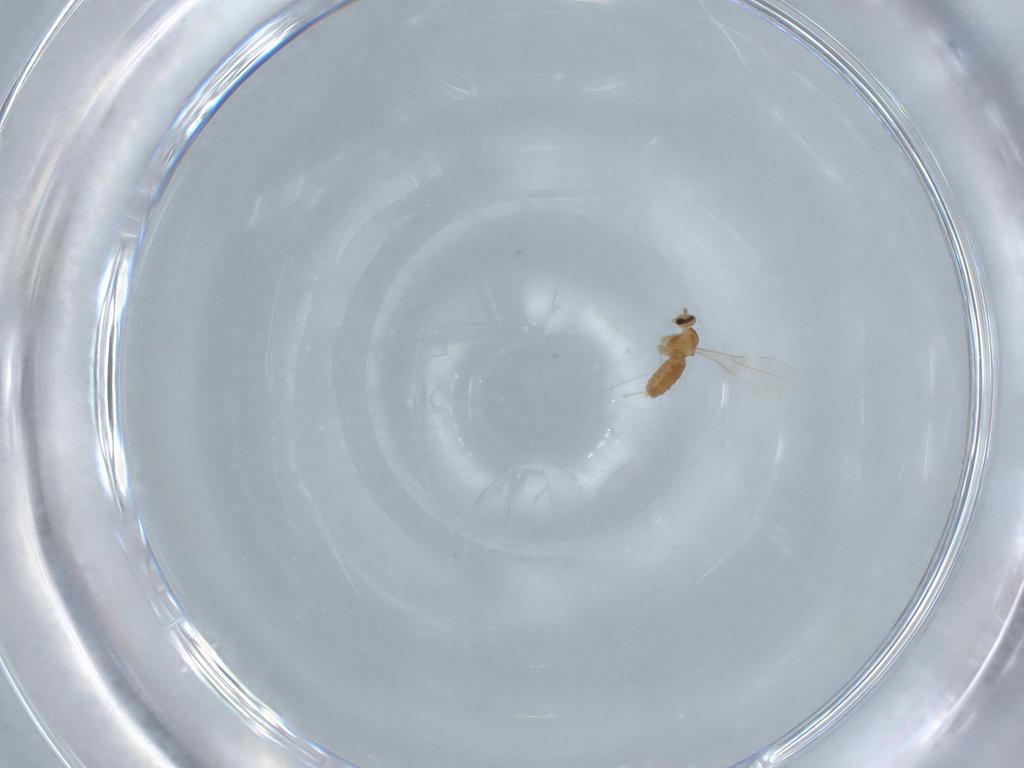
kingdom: Animalia
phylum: Arthropoda
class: Insecta
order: Diptera
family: Cecidomyiidae
